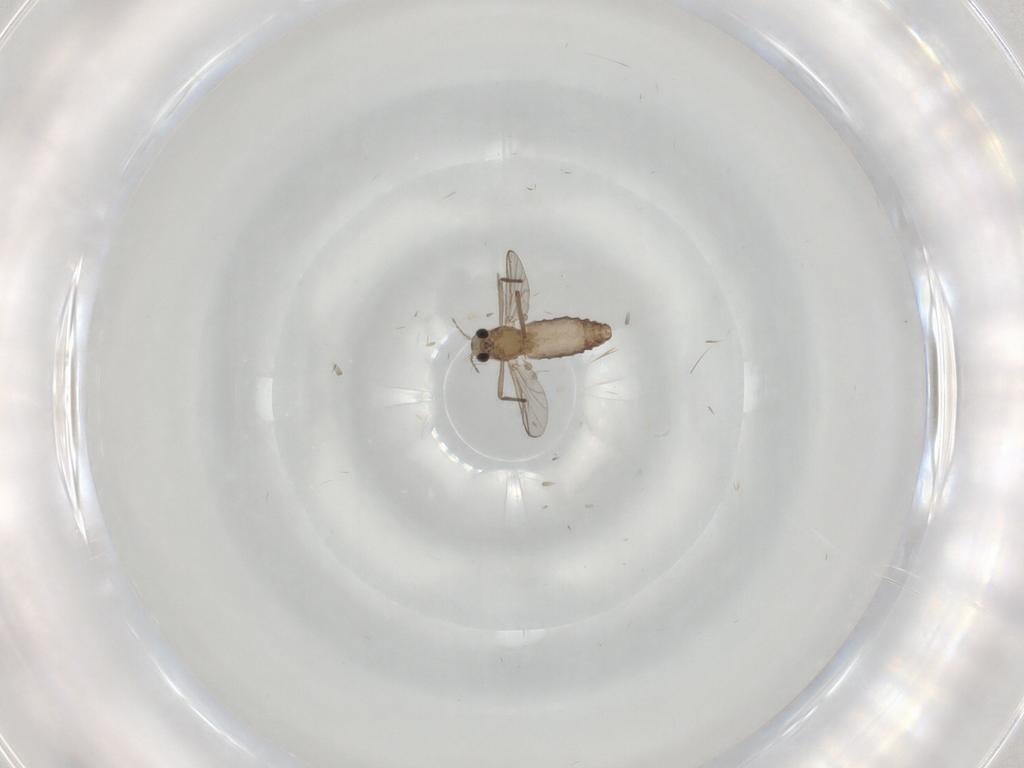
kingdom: Animalia
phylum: Arthropoda
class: Insecta
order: Diptera
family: Chironomidae
